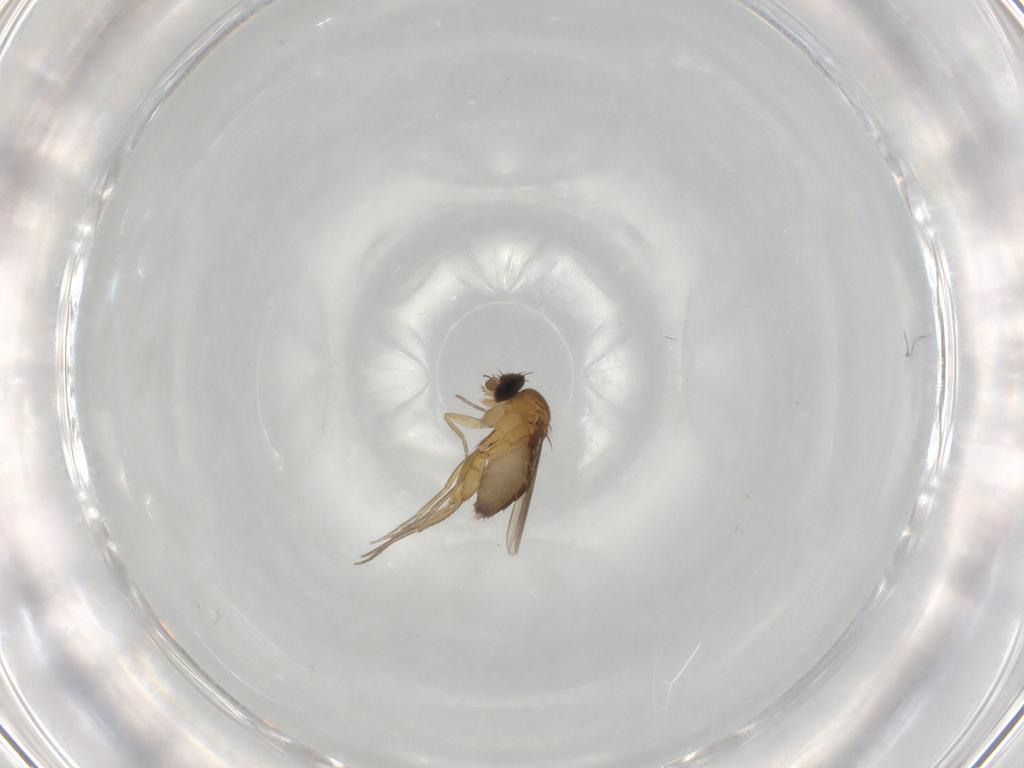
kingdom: Animalia
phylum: Arthropoda
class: Insecta
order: Diptera
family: Phoridae
